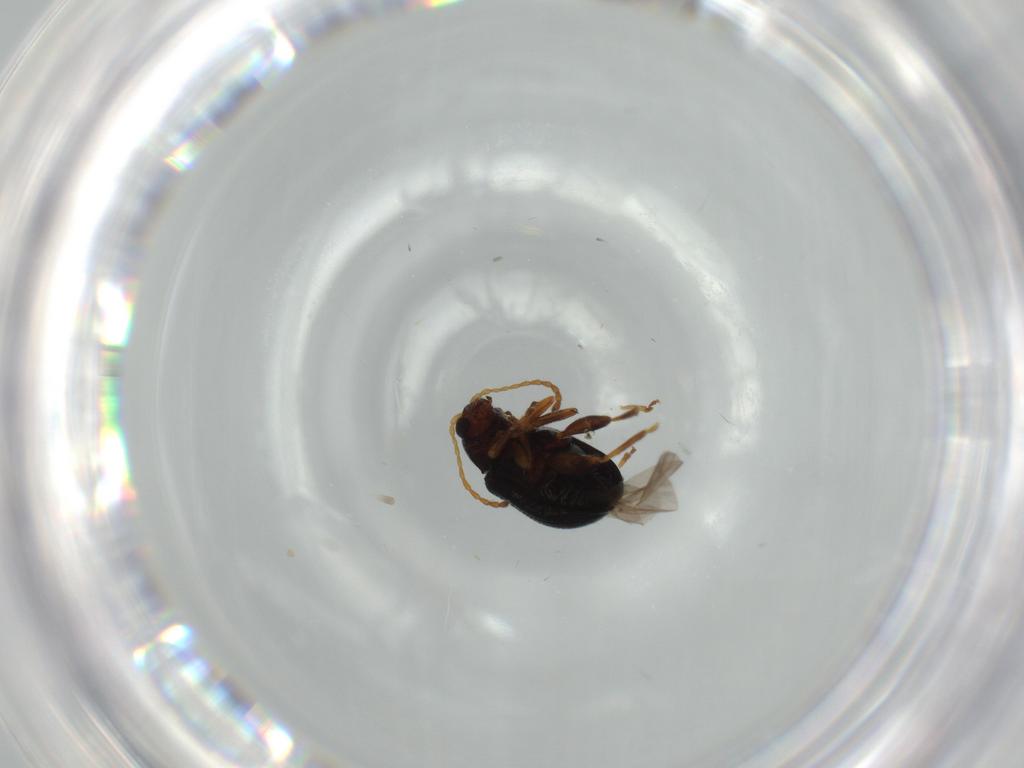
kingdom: Animalia
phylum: Arthropoda
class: Insecta
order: Coleoptera
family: Chrysomelidae
